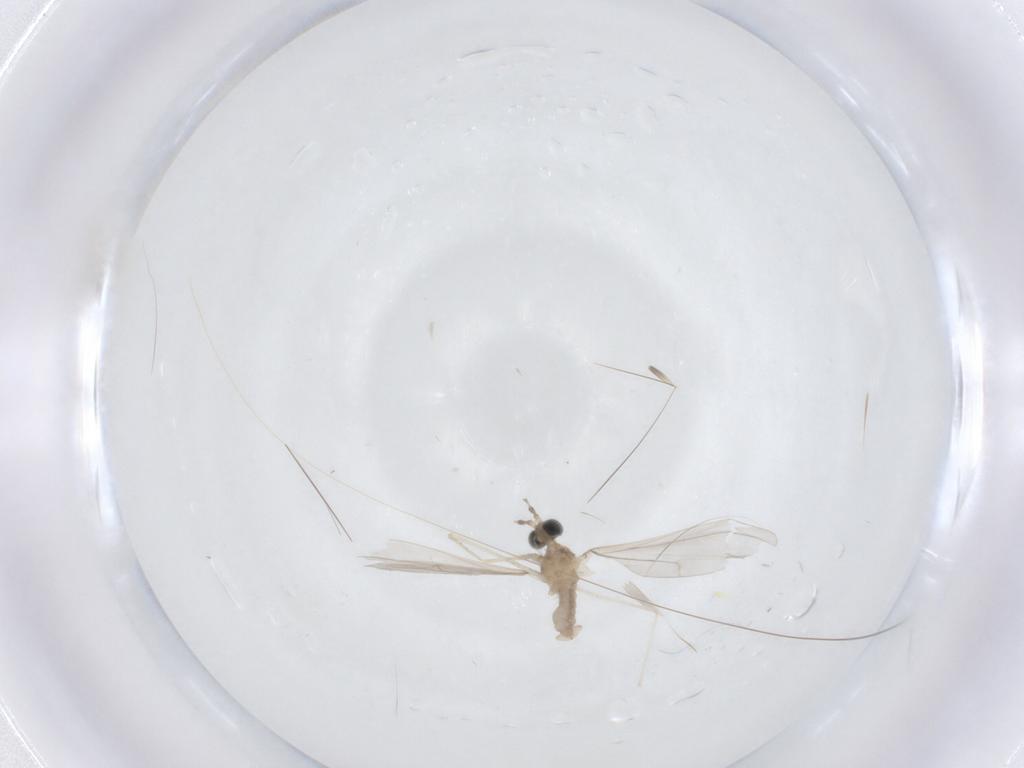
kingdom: Animalia
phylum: Arthropoda
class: Insecta
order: Diptera
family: Cecidomyiidae
